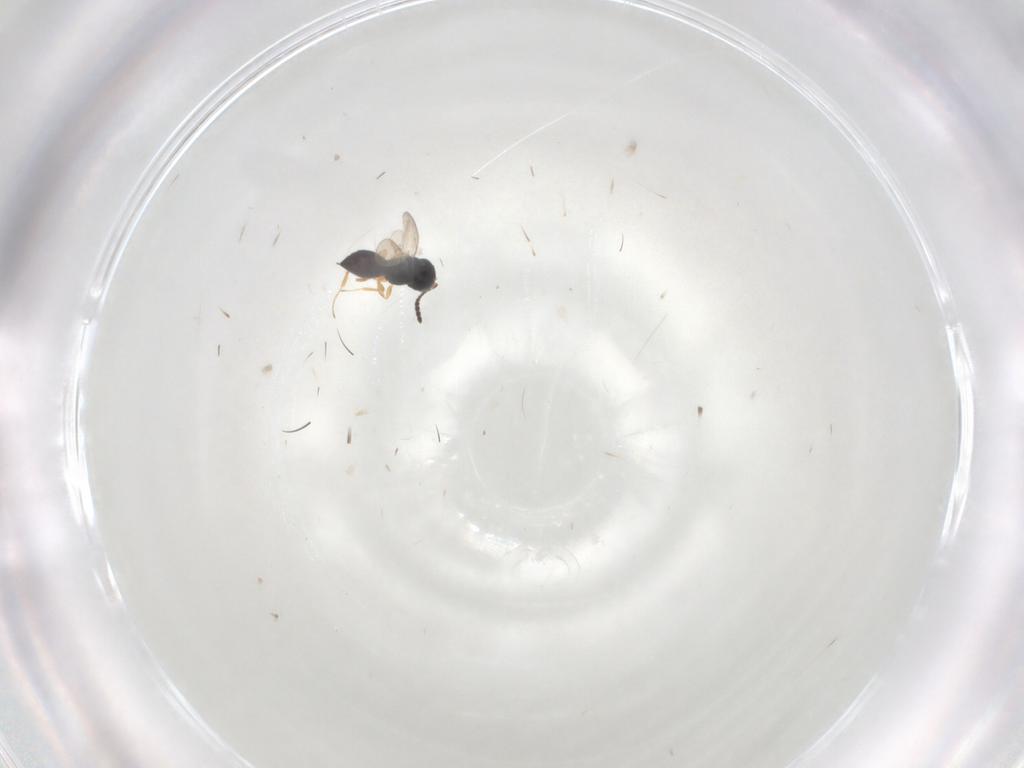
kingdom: Animalia
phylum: Arthropoda
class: Insecta
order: Hymenoptera
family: Scelionidae
